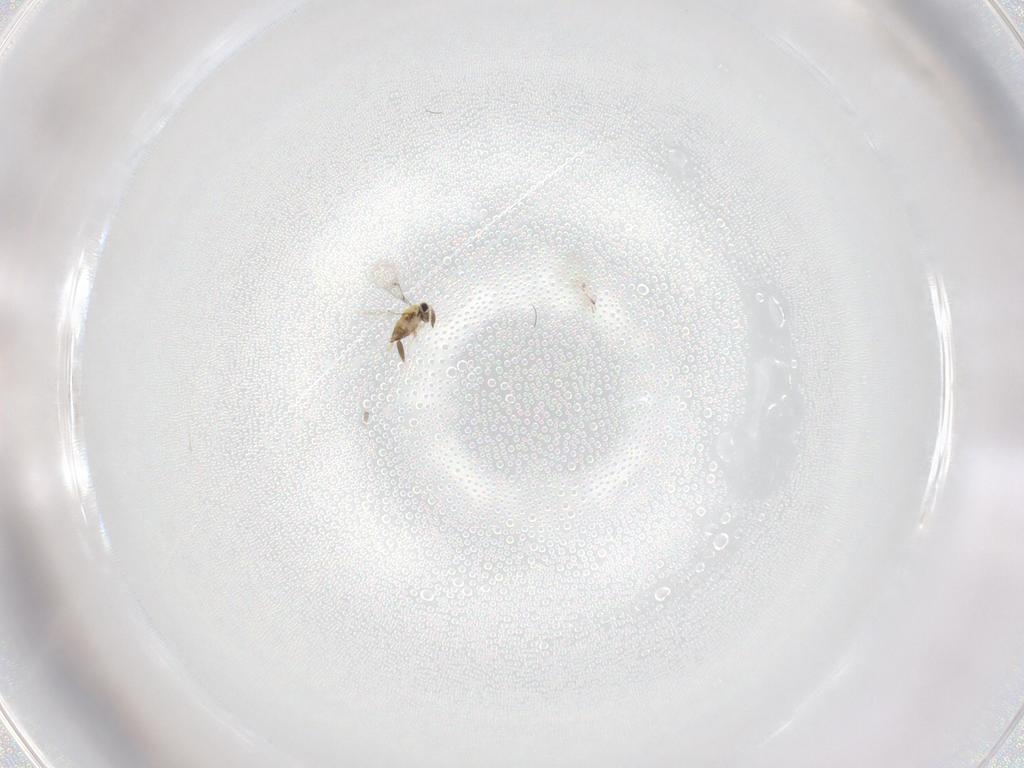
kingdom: Animalia
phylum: Arthropoda
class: Insecta
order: Hymenoptera
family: Trichogrammatidae
